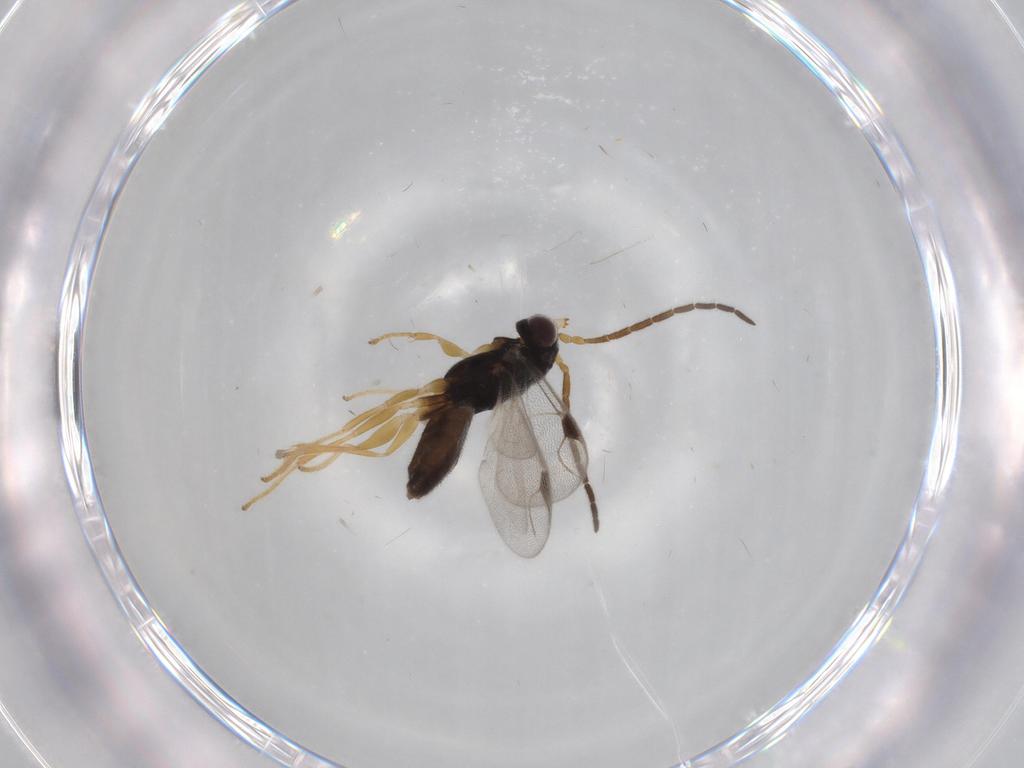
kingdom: Animalia
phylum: Arthropoda
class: Insecta
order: Hymenoptera
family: Dryinidae
